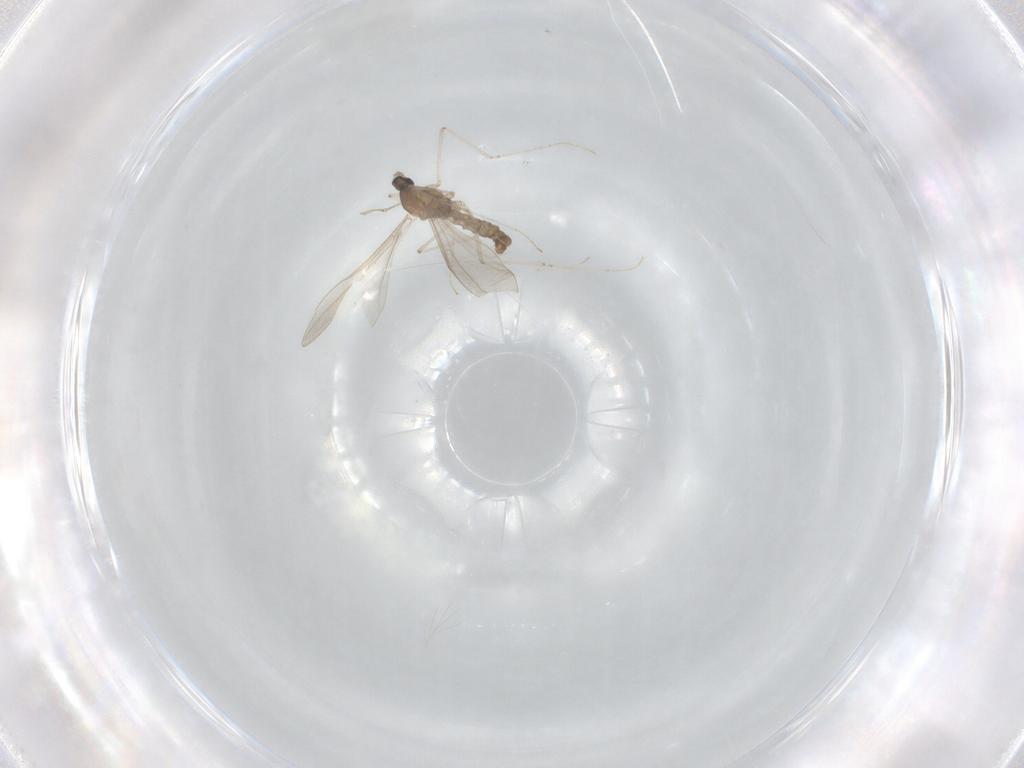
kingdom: Animalia
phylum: Arthropoda
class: Insecta
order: Diptera
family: Cecidomyiidae
